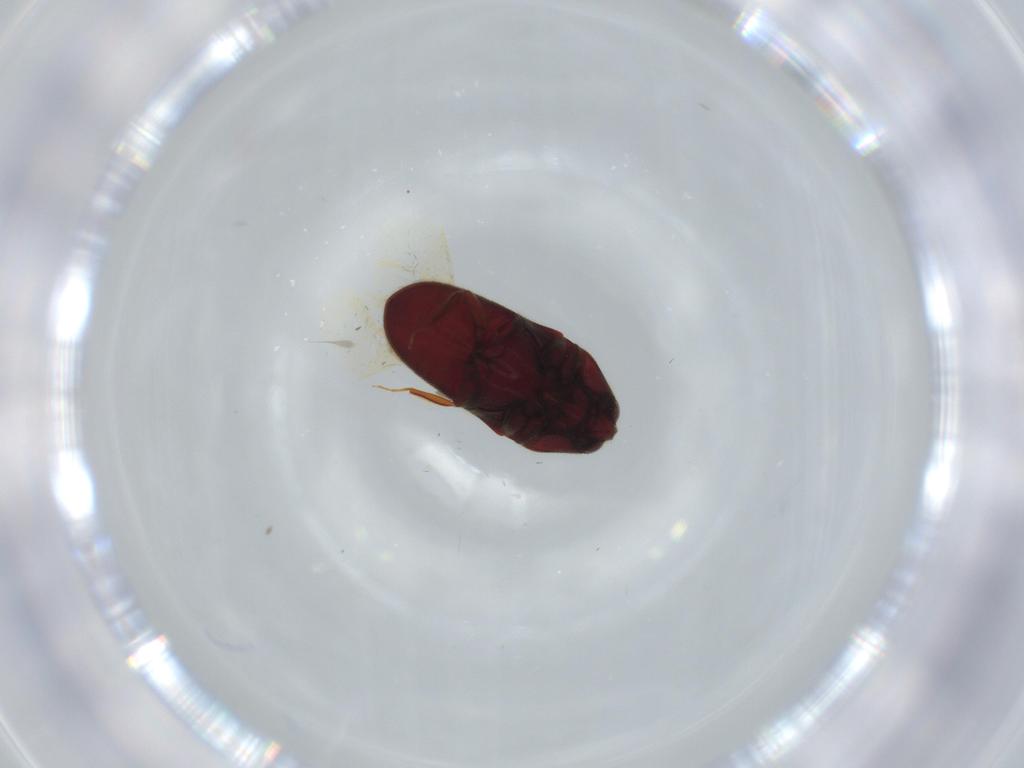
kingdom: Animalia
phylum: Arthropoda
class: Insecta
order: Coleoptera
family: Throscidae
